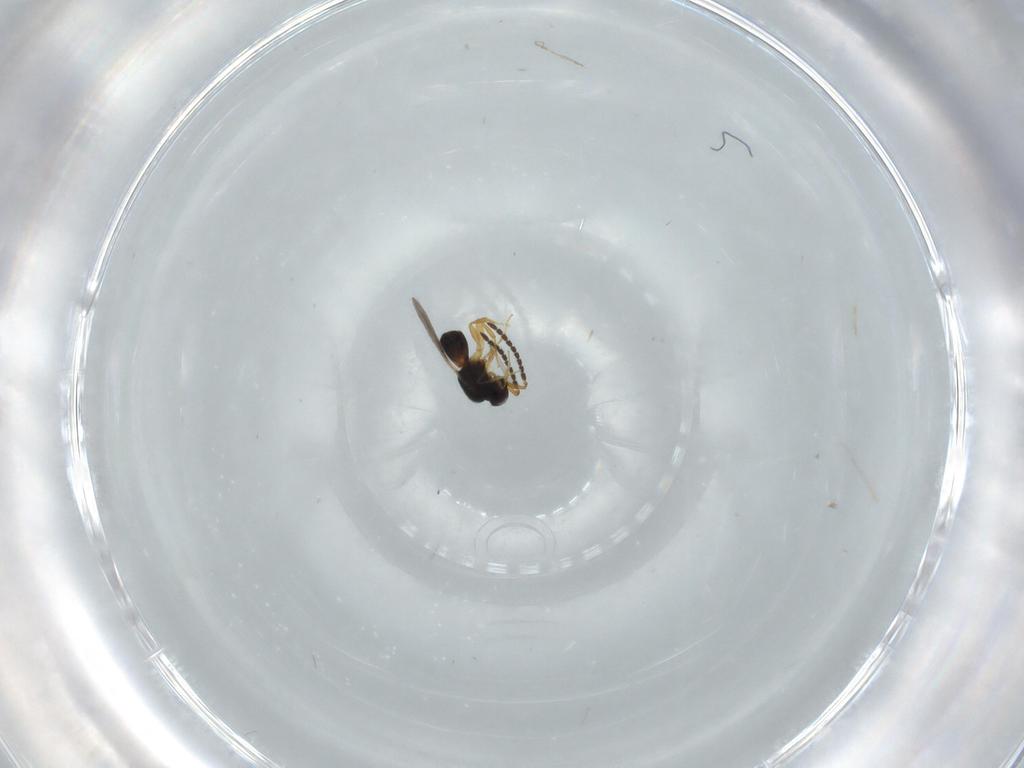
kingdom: Animalia
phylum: Arthropoda
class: Insecta
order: Hymenoptera
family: Ceraphronidae
